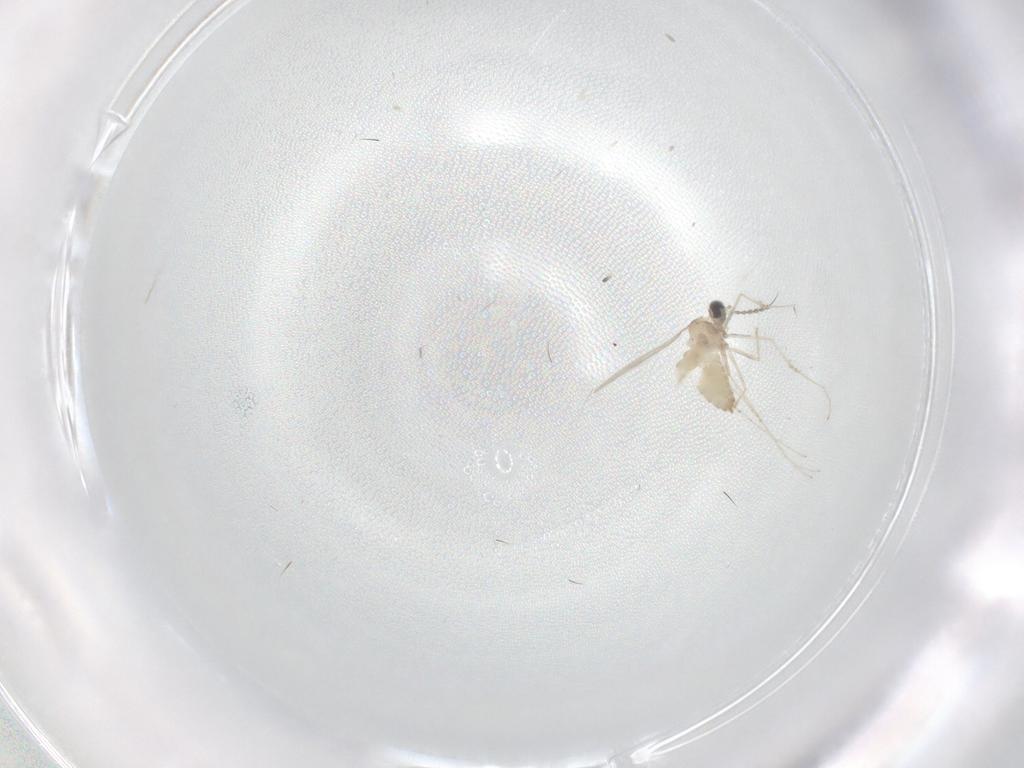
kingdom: Animalia
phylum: Arthropoda
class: Insecta
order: Diptera
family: Cecidomyiidae
